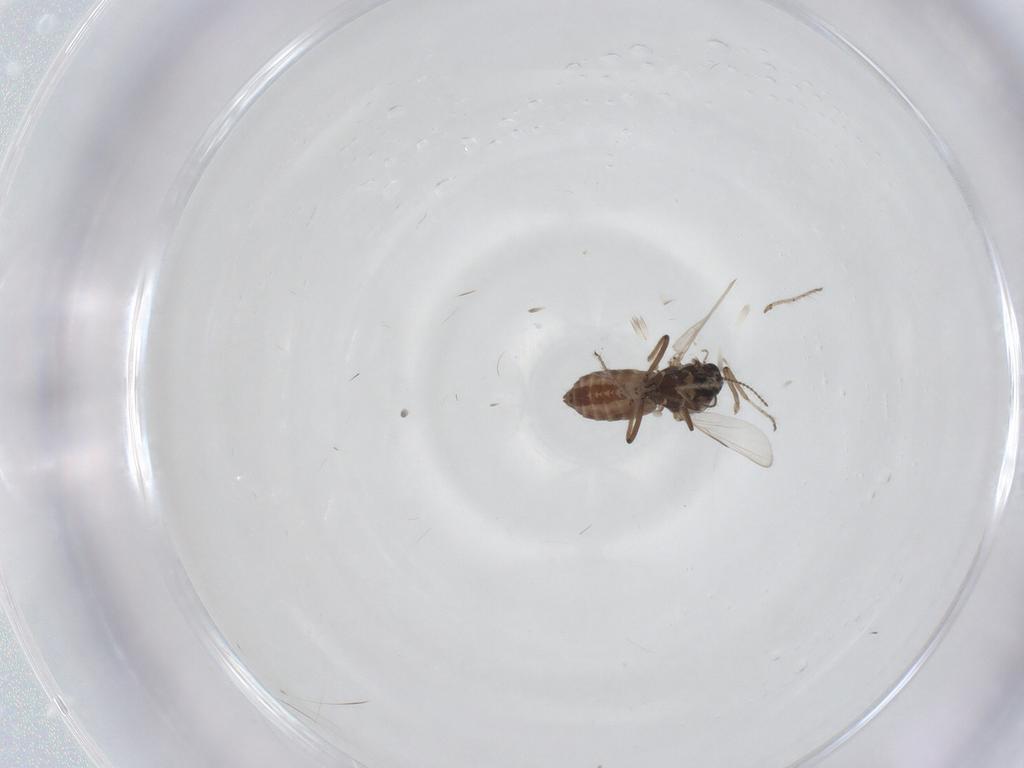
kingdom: Animalia
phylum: Arthropoda
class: Insecta
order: Diptera
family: Ceratopogonidae
